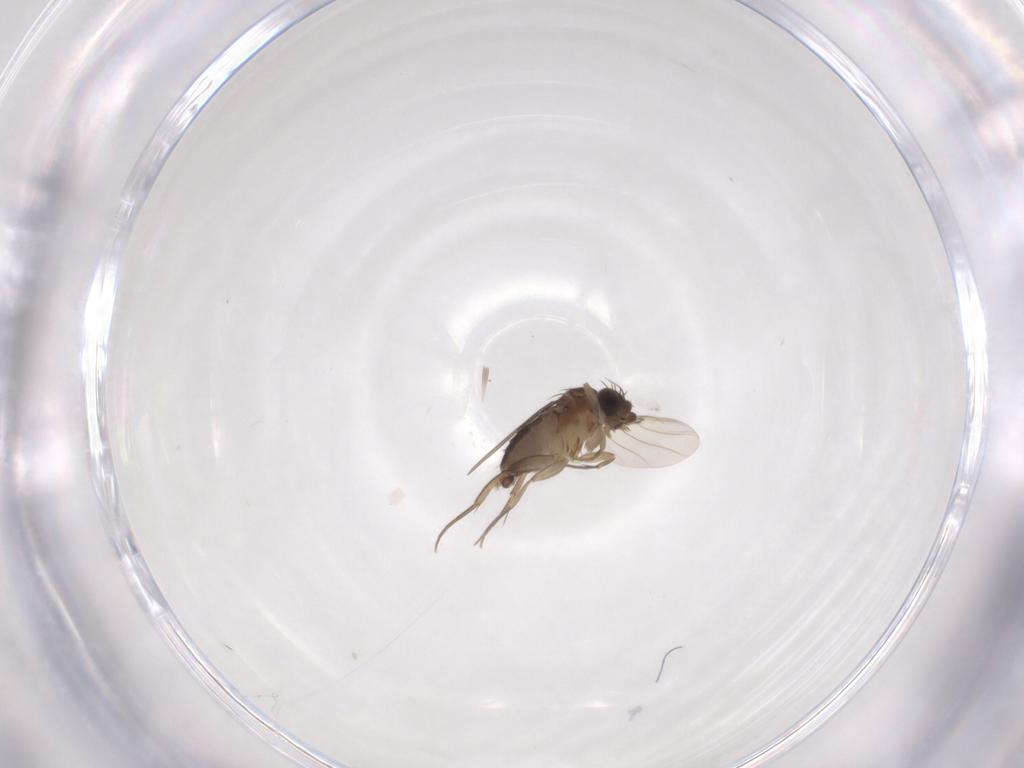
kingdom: Animalia
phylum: Arthropoda
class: Insecta
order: Diptera
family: Phoridae
